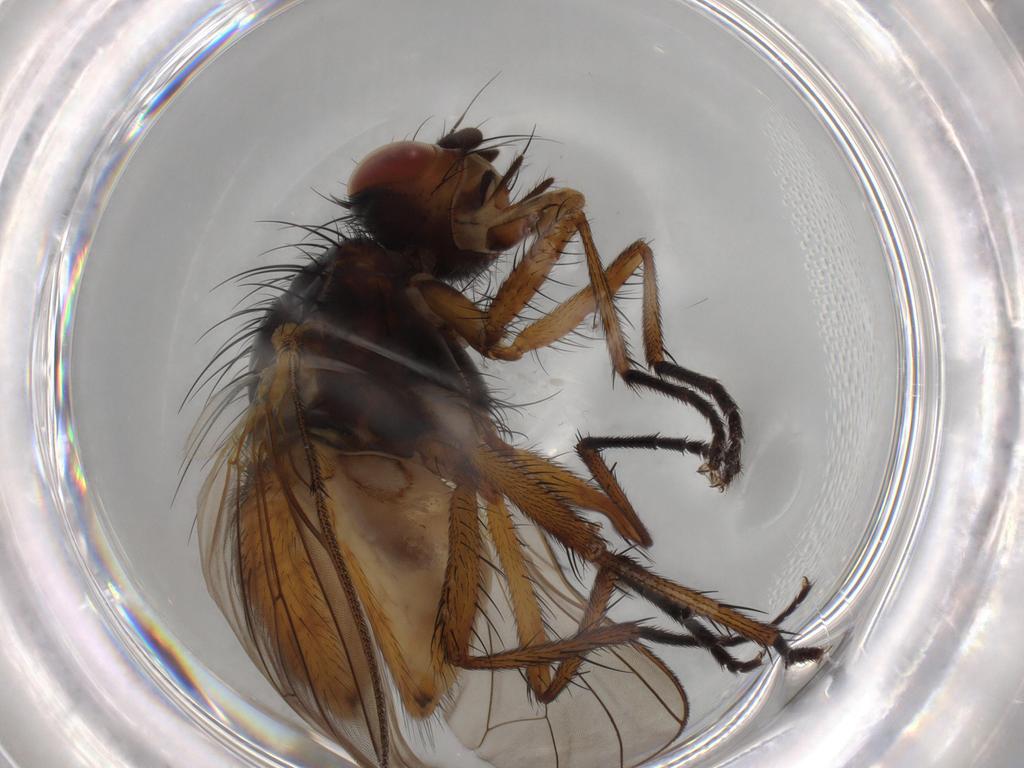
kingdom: Animalia
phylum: Arthropoda
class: Insecta
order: Diptera
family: Anthomyiidae
